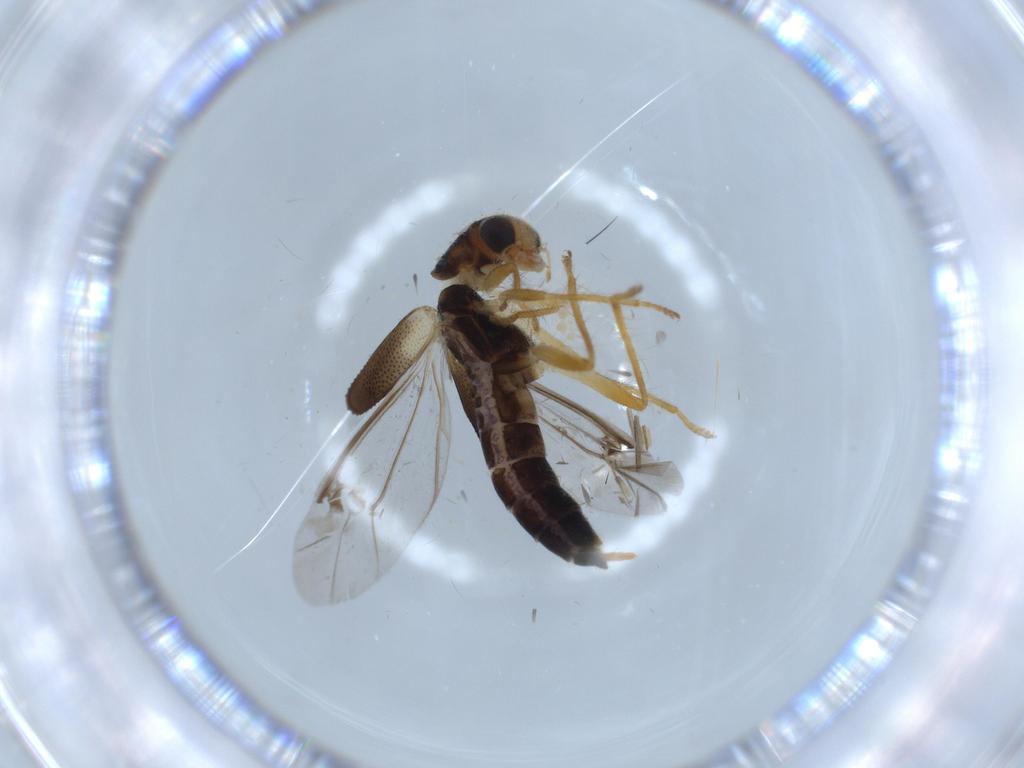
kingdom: Animalia
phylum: Arthropoda
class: Insecta
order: Coleoptera
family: Cleridae
